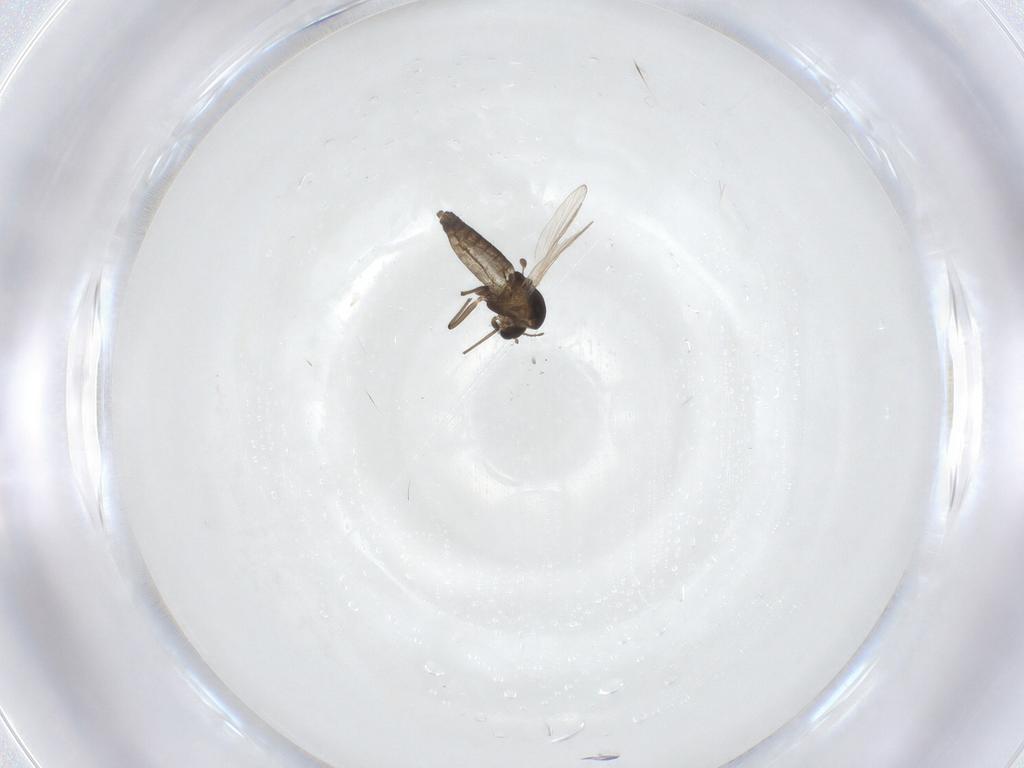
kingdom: Animalia
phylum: Arthropoda
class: Insecta
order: Diptera
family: Chironomidae
